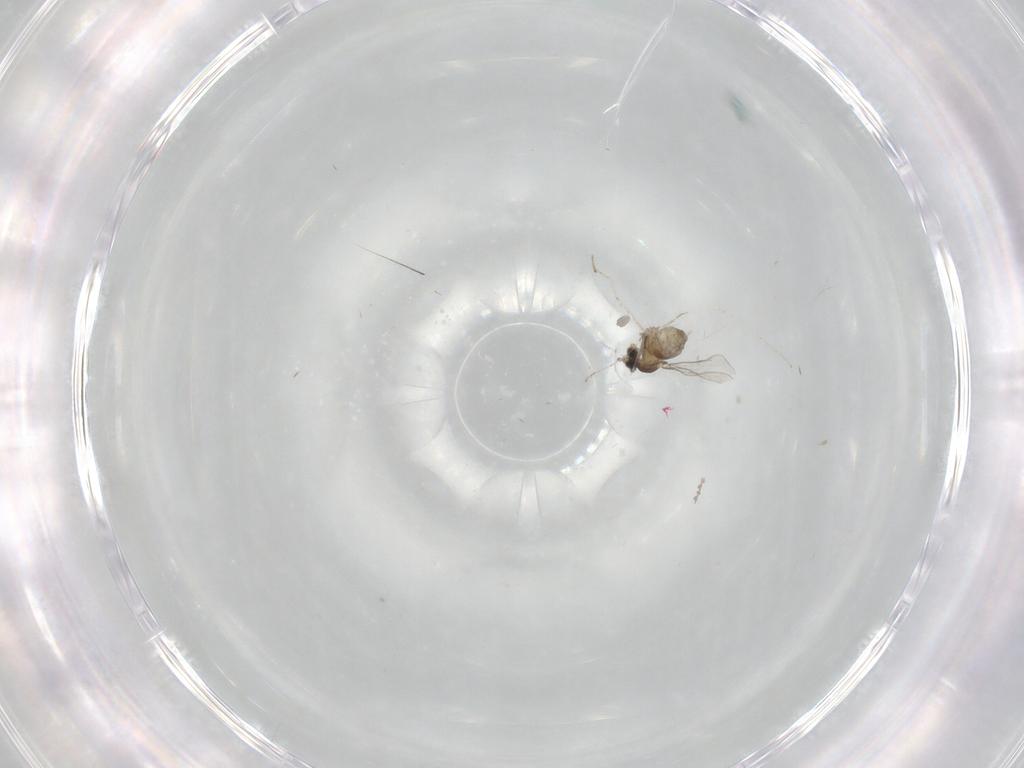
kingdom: Animalia
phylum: Arthropoda
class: Insecta
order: Diptera
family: Cecidomyiidae
